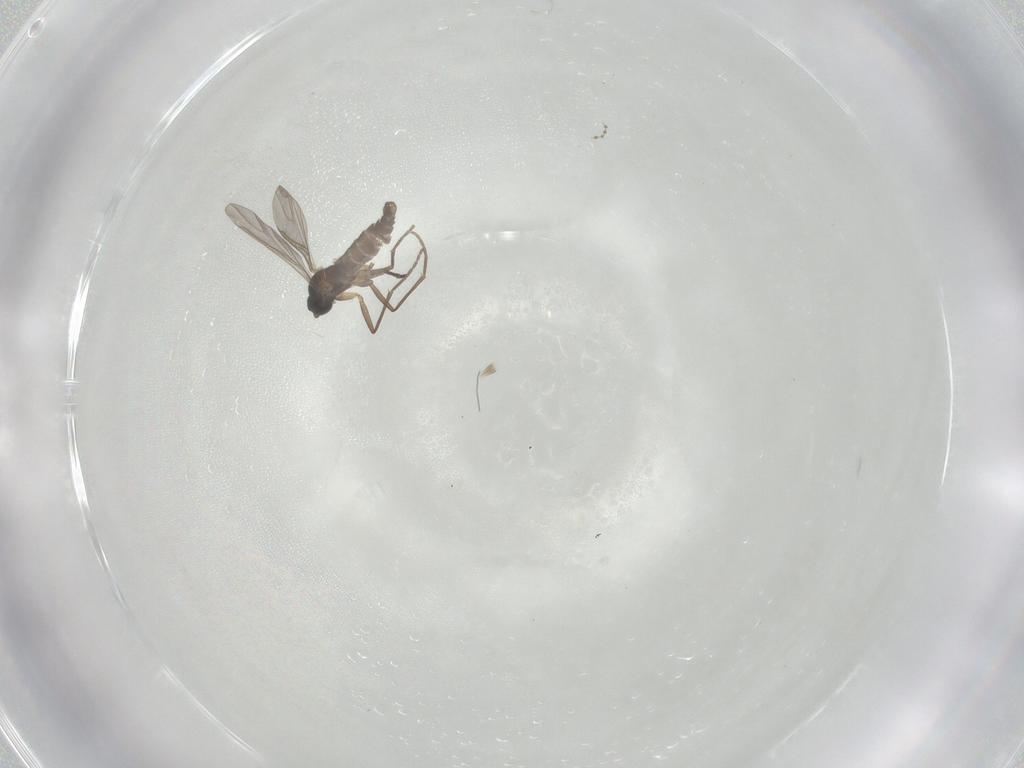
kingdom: Animalia
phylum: Arthropoda
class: Insecta
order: Diptera
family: Sciaridae
